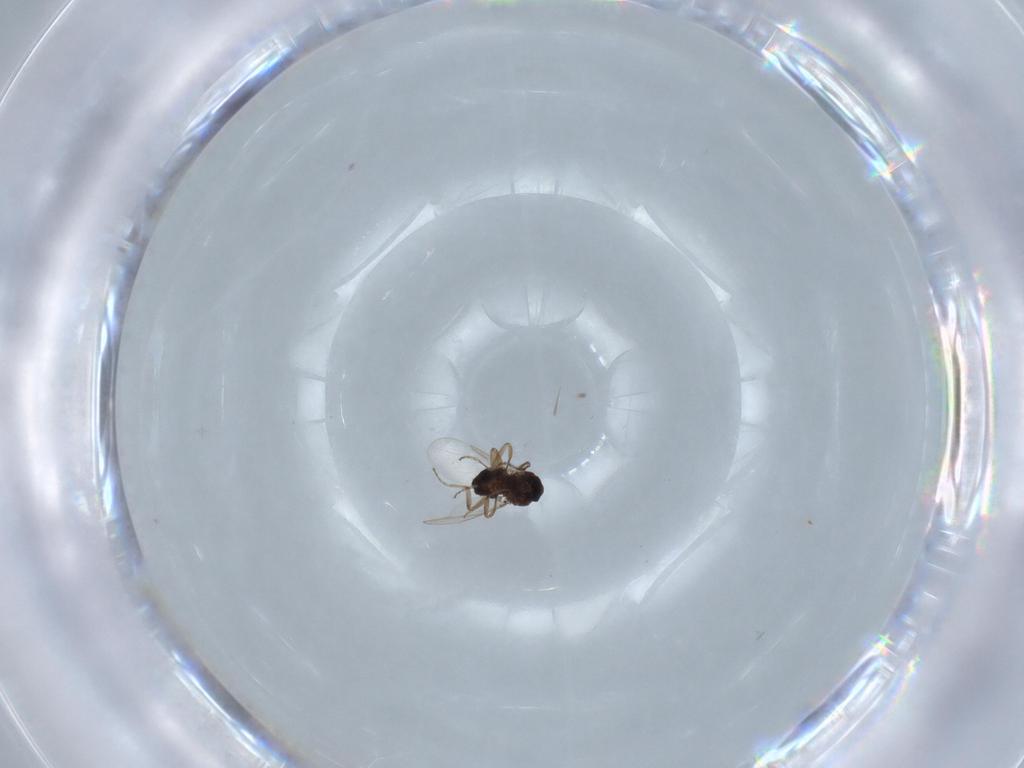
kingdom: Animalia
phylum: Arthropoda
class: Insecta
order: Diptera
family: Ceratopogonidae
